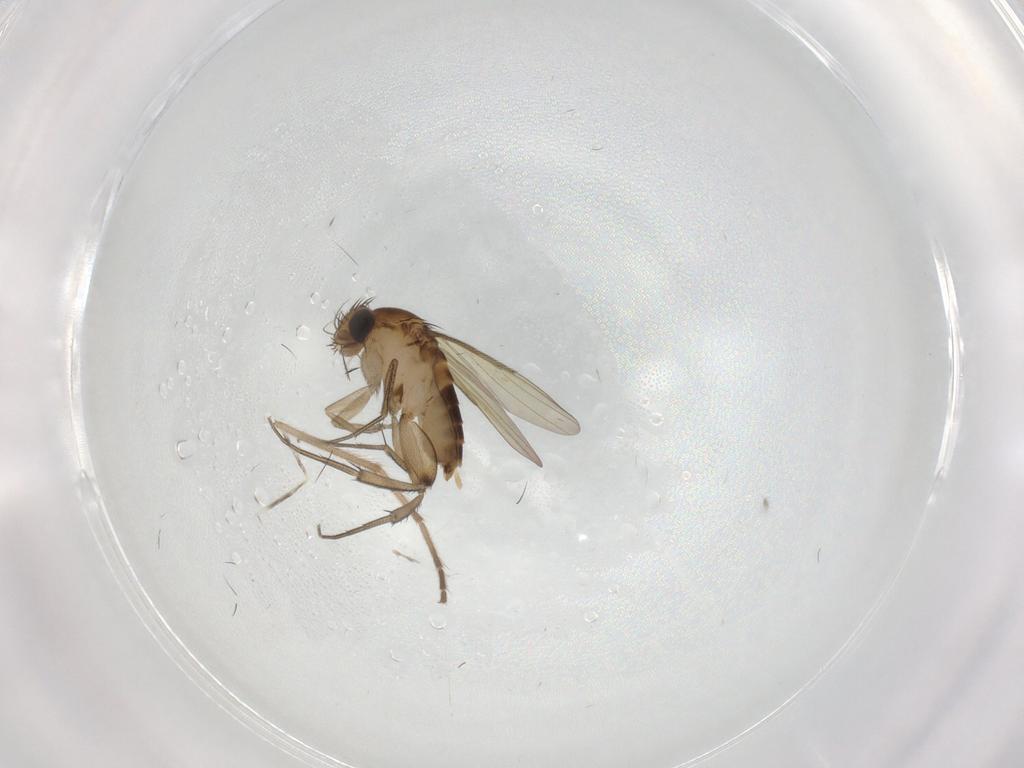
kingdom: Animalia
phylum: Arthropoda
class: Insecta
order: Diptera
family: Phoridae
